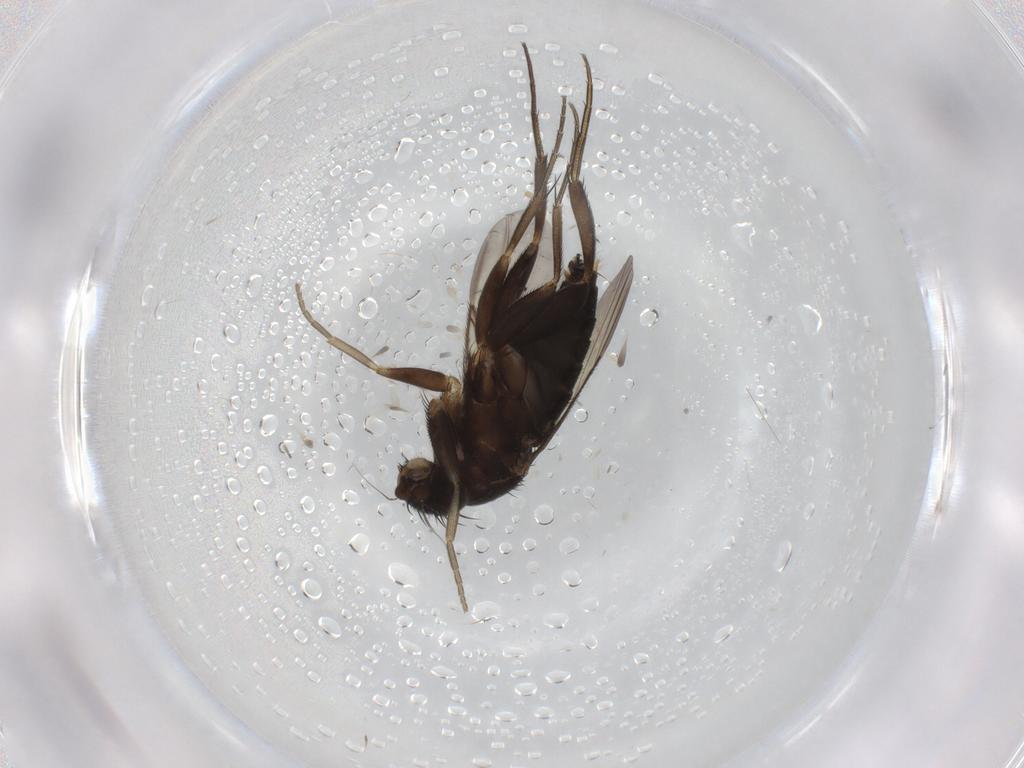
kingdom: Animalia
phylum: Arthropoda
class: Insecta
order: Diptera
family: Sciaridae
